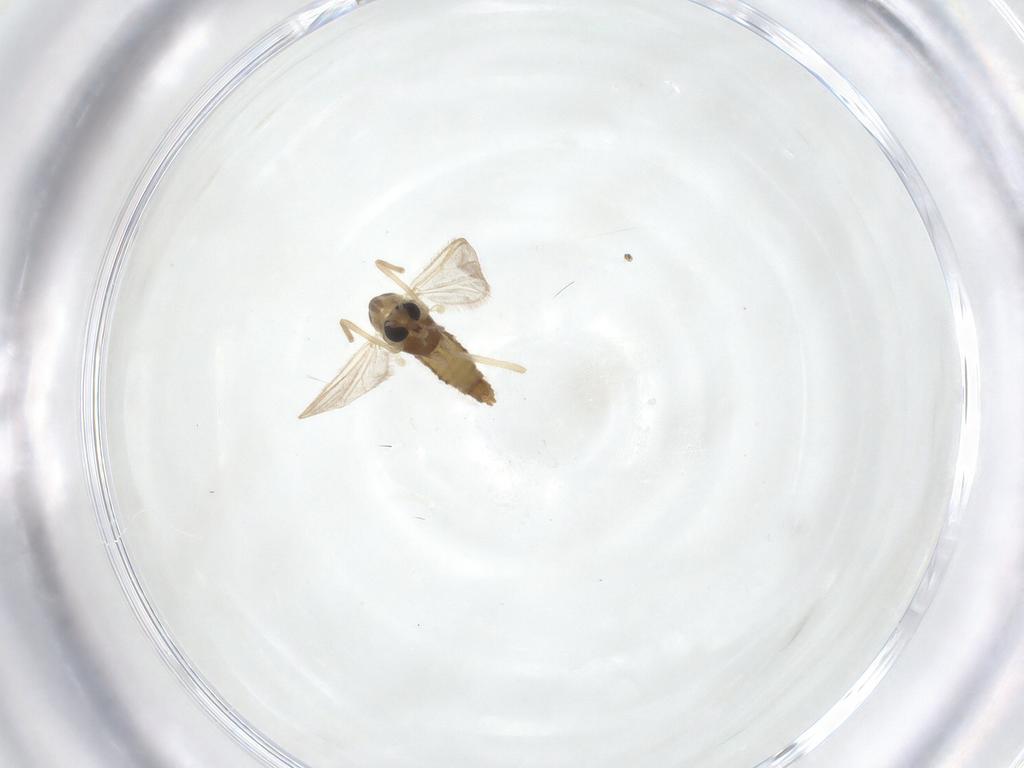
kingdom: Animalia
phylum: Arthropoda
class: Insecta
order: Diptera
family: Chironomidae
